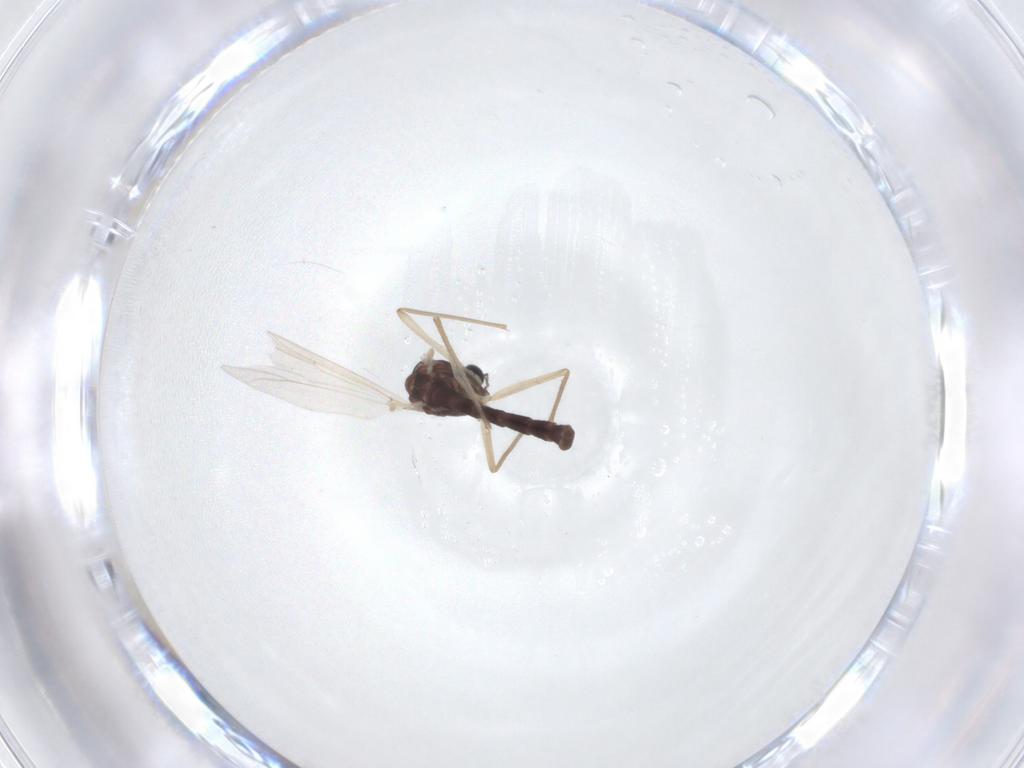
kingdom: Animalia
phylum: Arthropoda
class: Insecta
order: Diptera
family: Chironomidae
